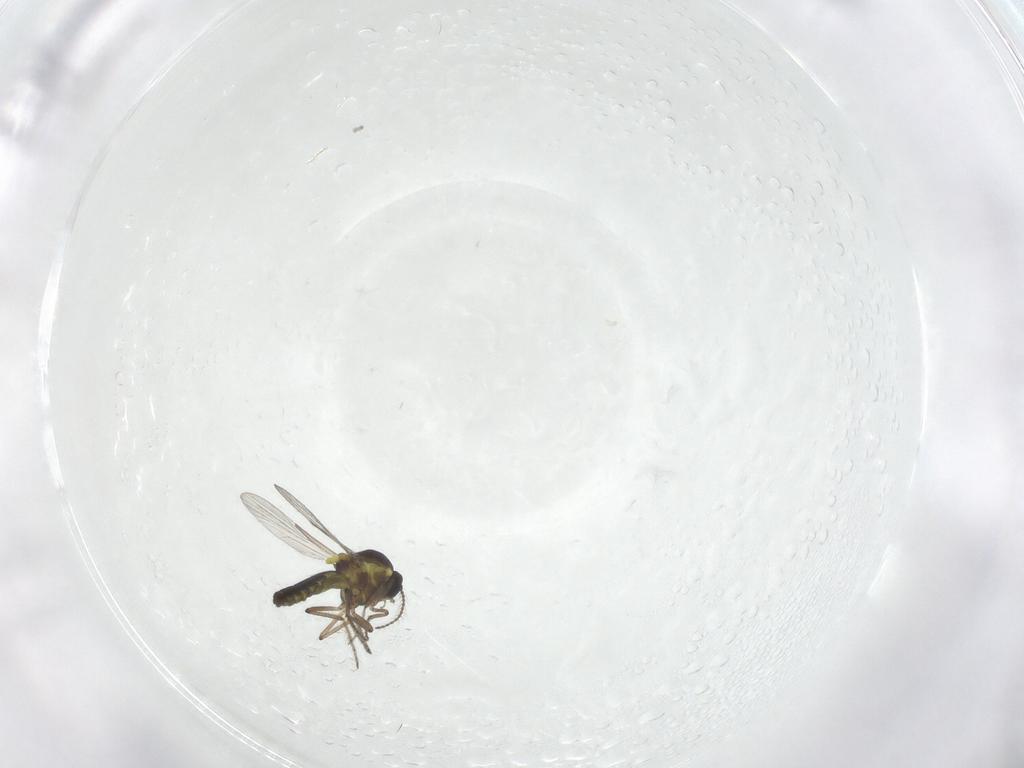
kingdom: Animalia
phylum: Arthropoda
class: Insecta
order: Diptera
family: Ceratopogonidae
